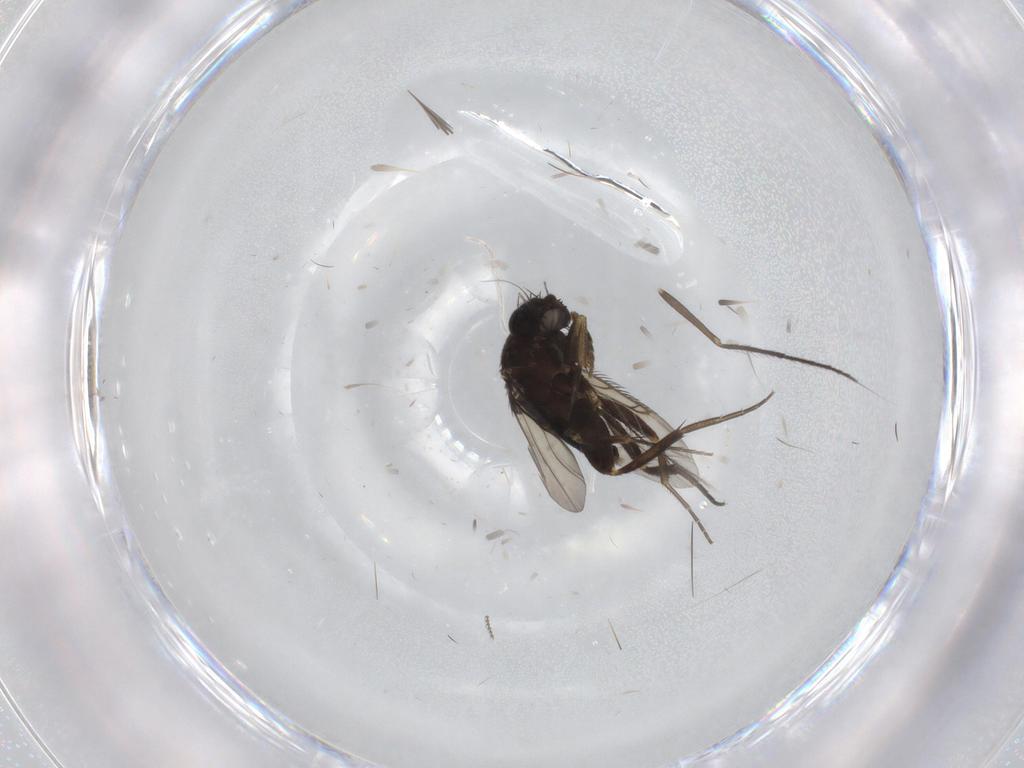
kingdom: Animalia
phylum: Arthropoda
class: Insecta
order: Diptera
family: Phoridae
